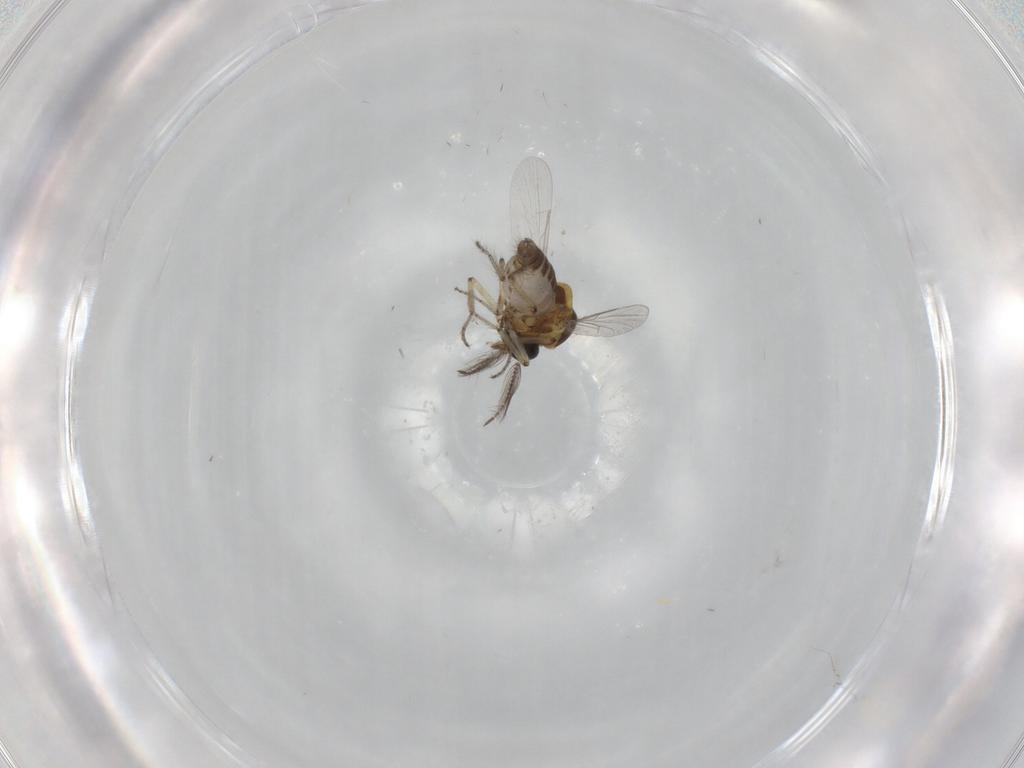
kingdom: Animalia
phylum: Arthropoda
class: Insecta
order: Diptera
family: Ceratopogonidae
